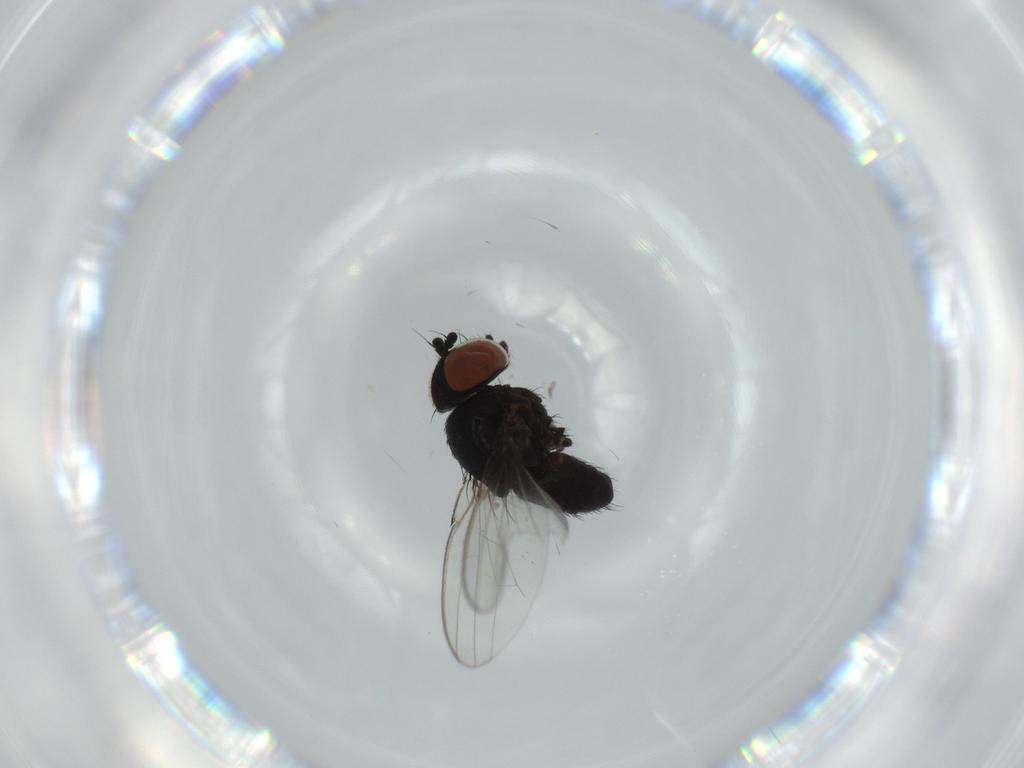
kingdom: Animalia
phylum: Arthropoda
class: Insecta
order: Diptera
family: Milichiidae
